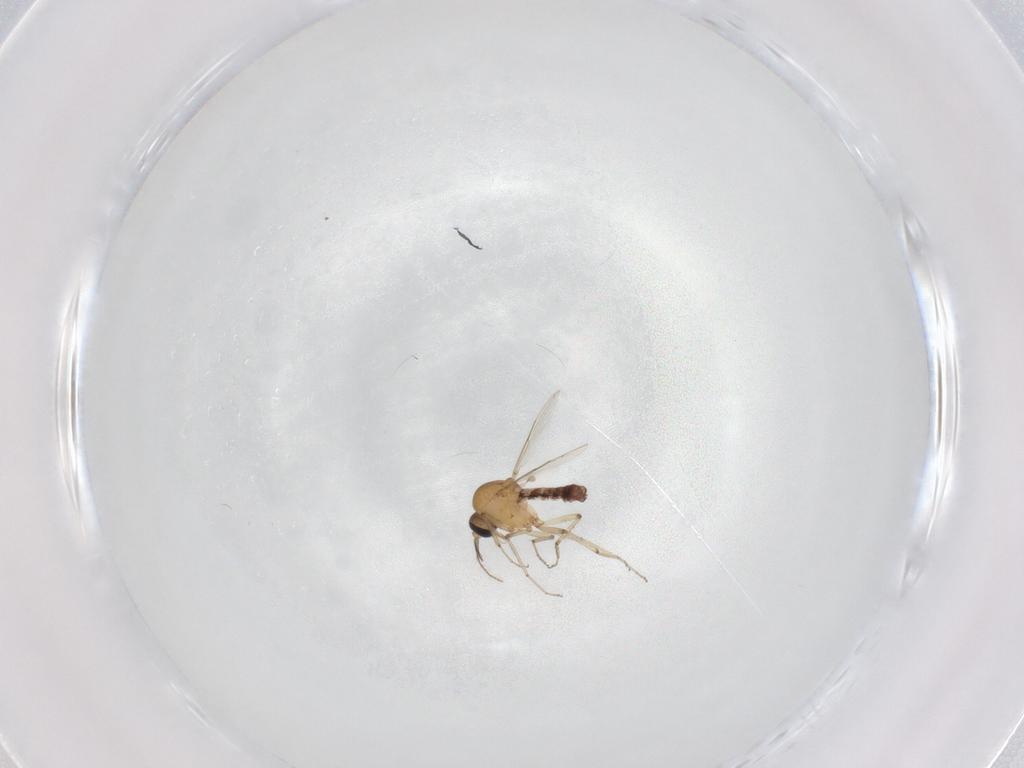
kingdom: Animalia
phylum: Arthropoda
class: Insecta
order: Diptera
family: Ceratopogonidae
